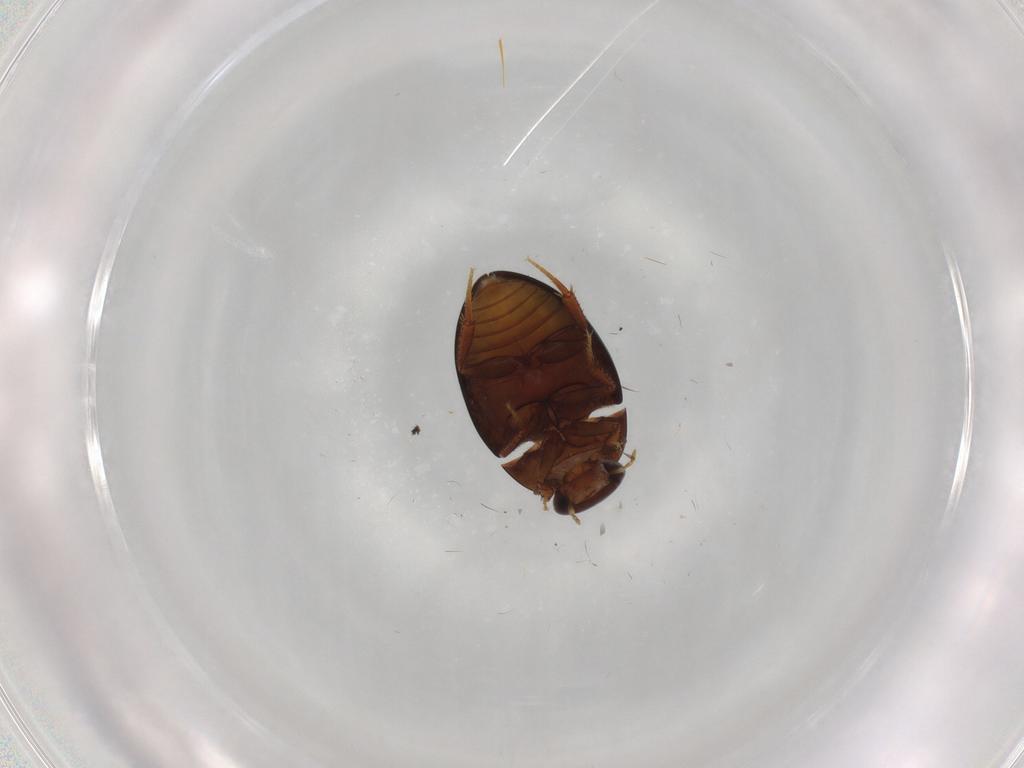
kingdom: Animalia
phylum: Arthropoda
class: Insecta
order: Coleoptera
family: Hydrophilidae
